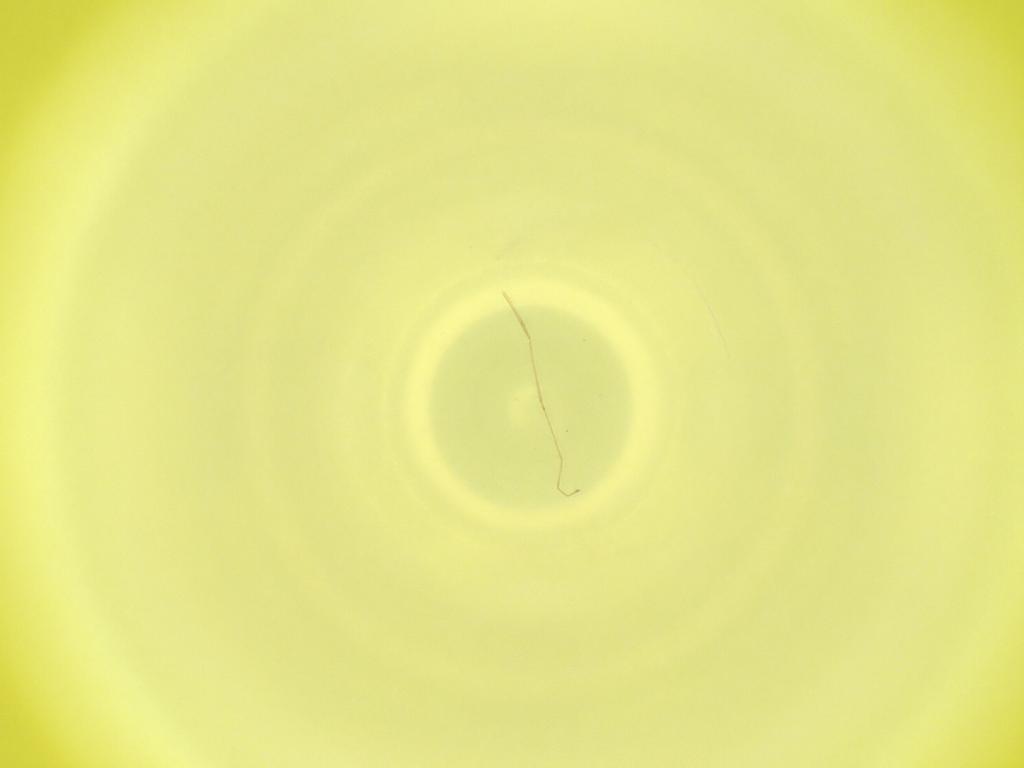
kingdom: Animalia
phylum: Arthropoda
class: Insecta
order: Diptera
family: Cecidomyiidae
